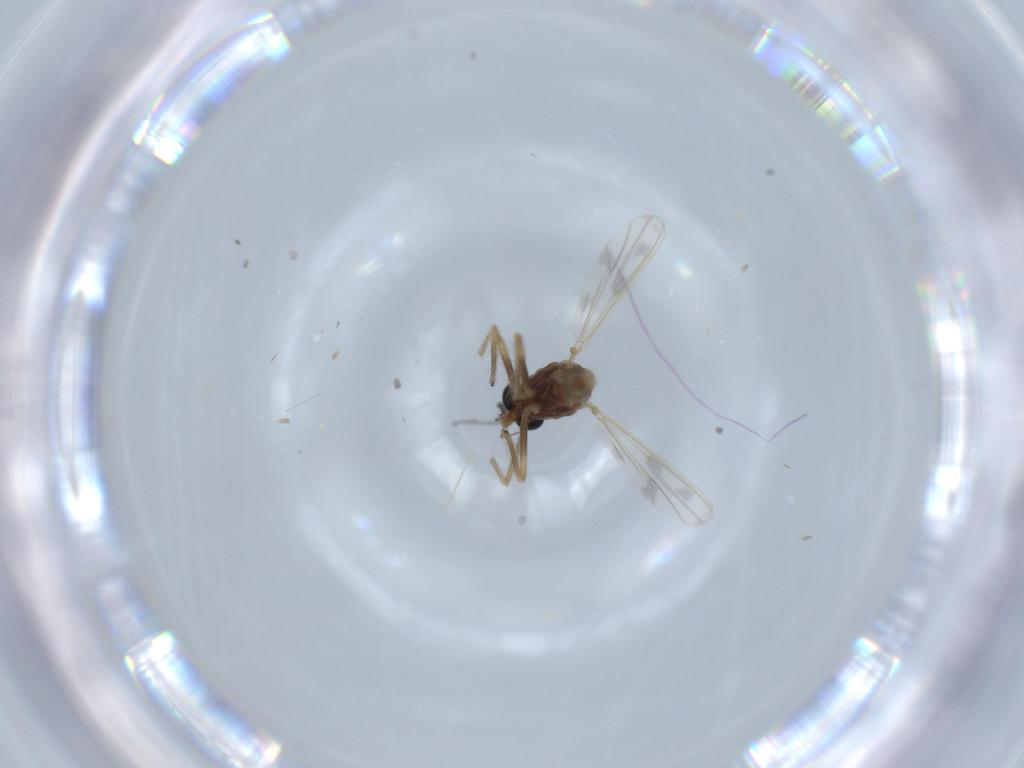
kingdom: Animalia
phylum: Arthropoda
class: Insecta
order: Diptera
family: Chironomidae
